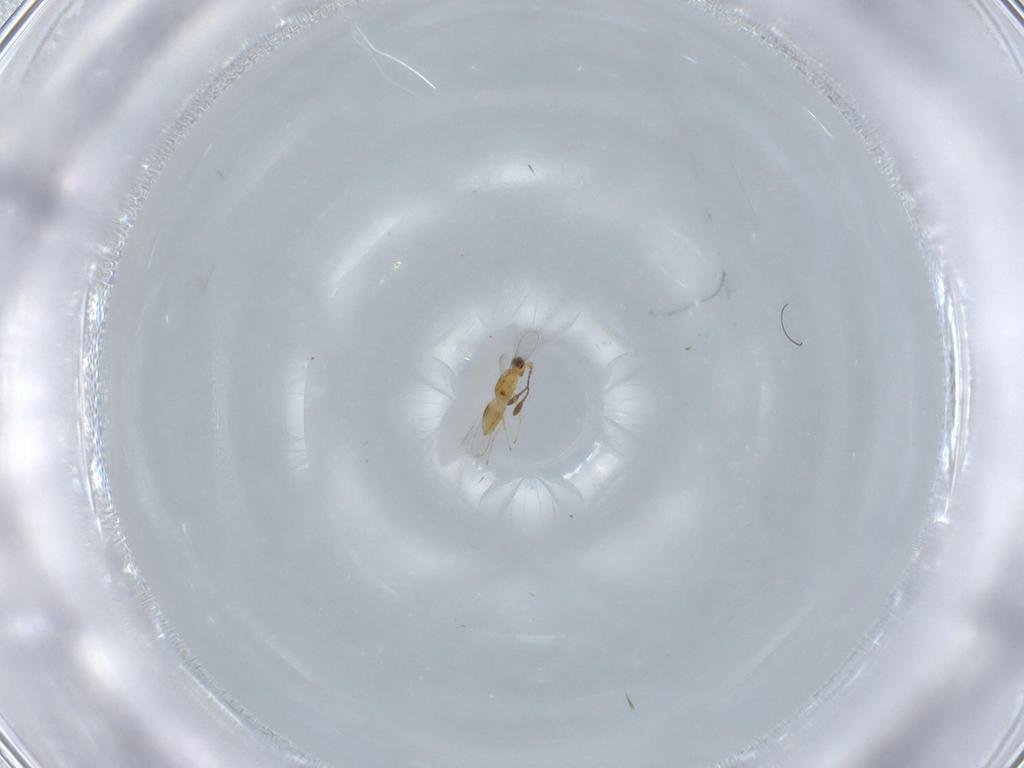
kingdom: Animalia
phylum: Arthropoda
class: Insecta
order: Hymenoptera
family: Mymaridae
